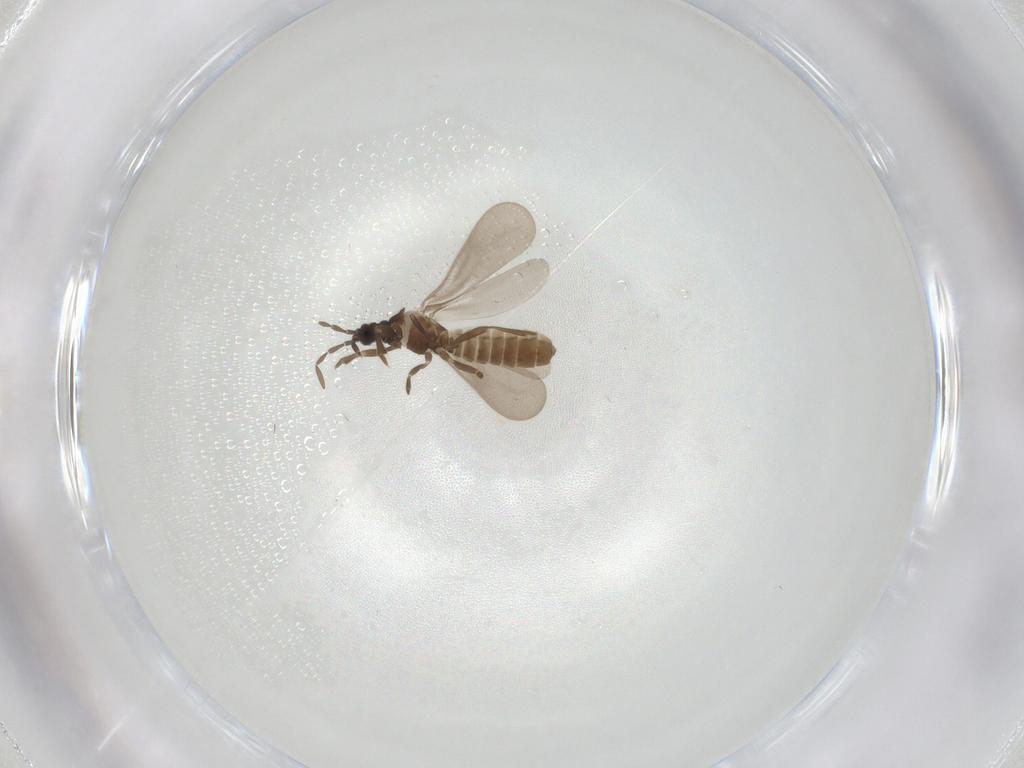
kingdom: Animalia
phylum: Arthropoda
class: Insecta
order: Hemiptera
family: Enicocephalidae
